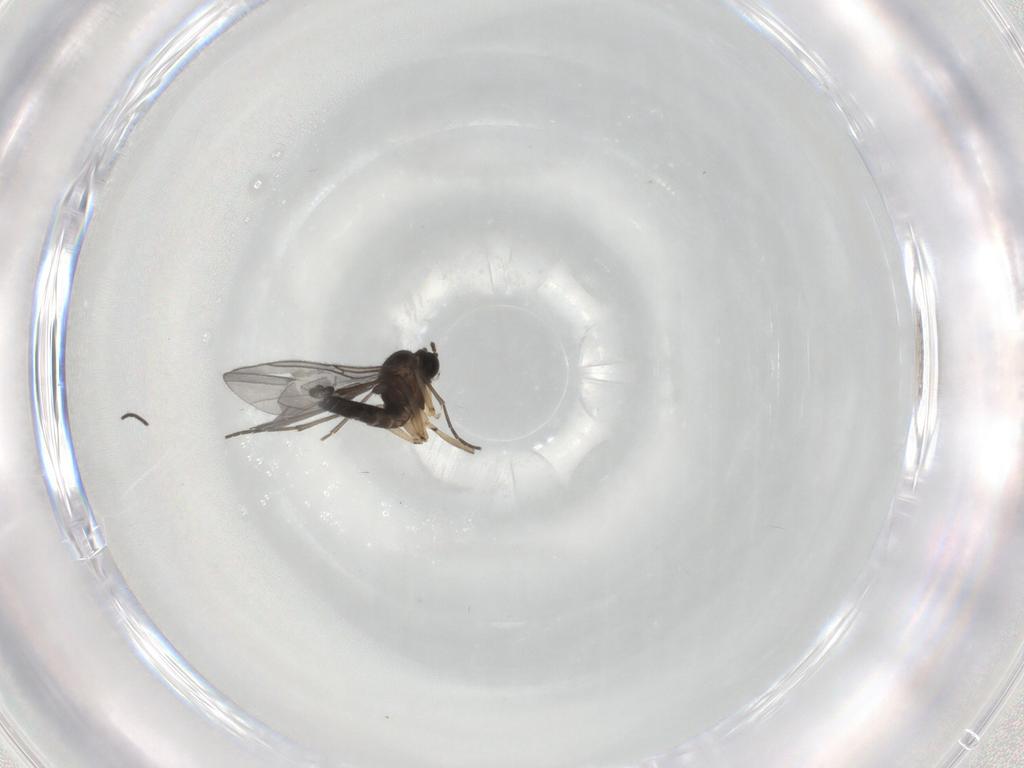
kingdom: Animalia
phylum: Arthropoda
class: Insecta
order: Diptera
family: Sciaridae
